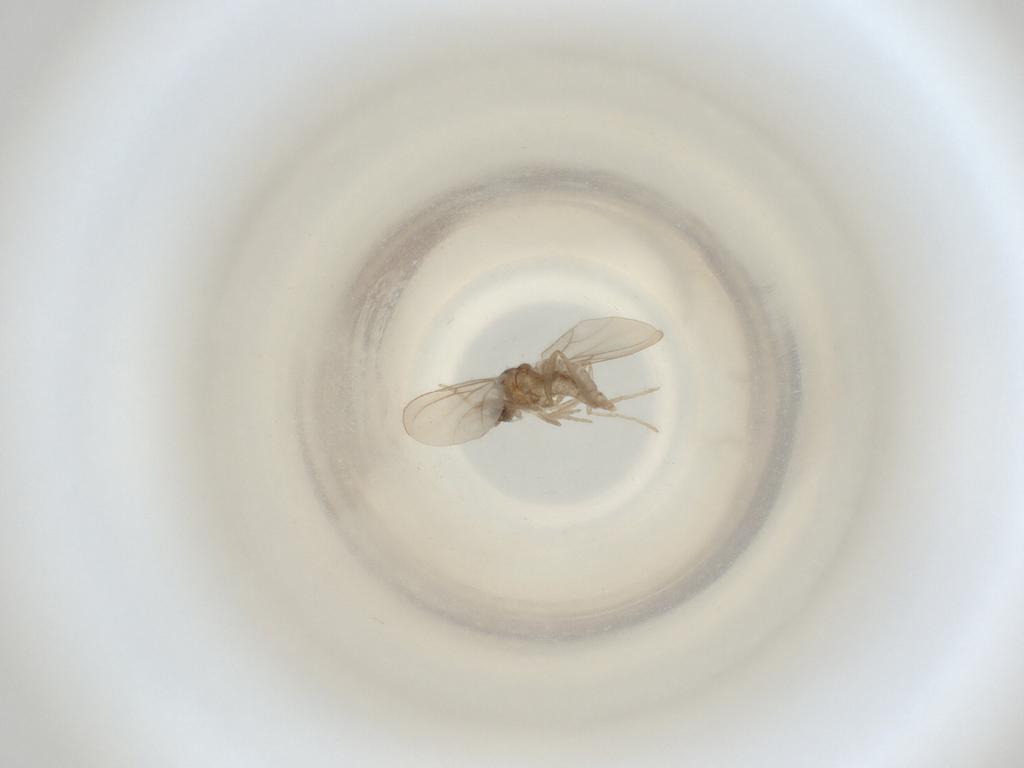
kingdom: Animalia
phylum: Arthropoda
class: Insecta
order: Diptera
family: Cecidomyiidae
